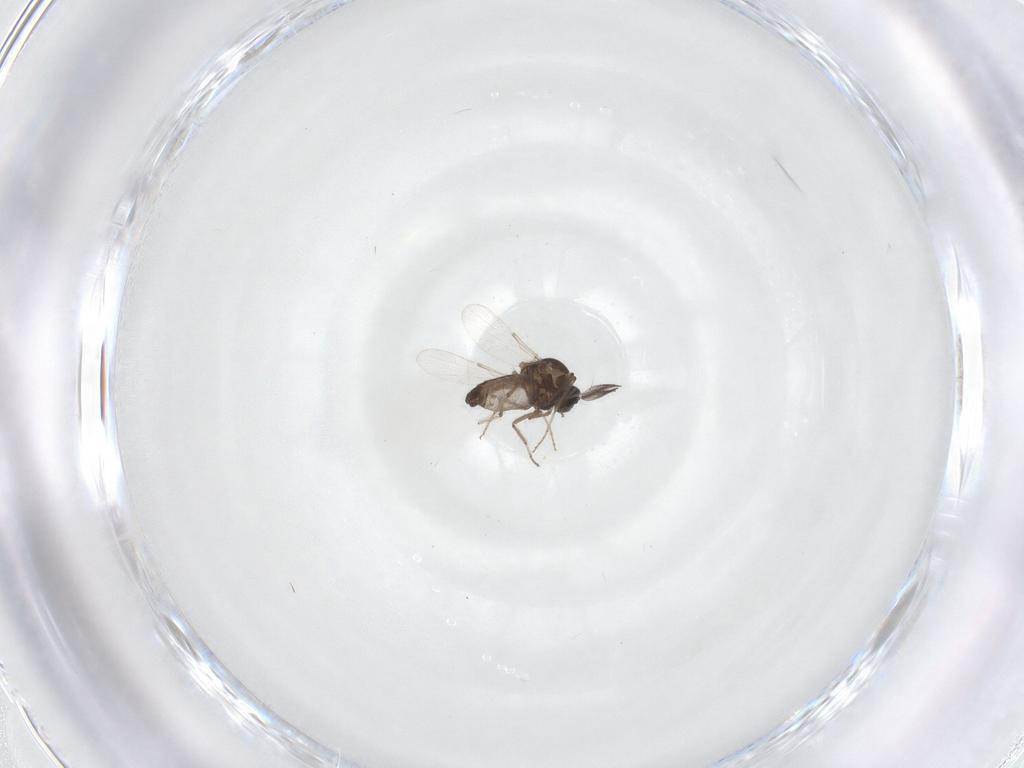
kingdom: Animalia
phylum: Arthropoda
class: Insecta
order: Diptera
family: Ceratopogonidae
